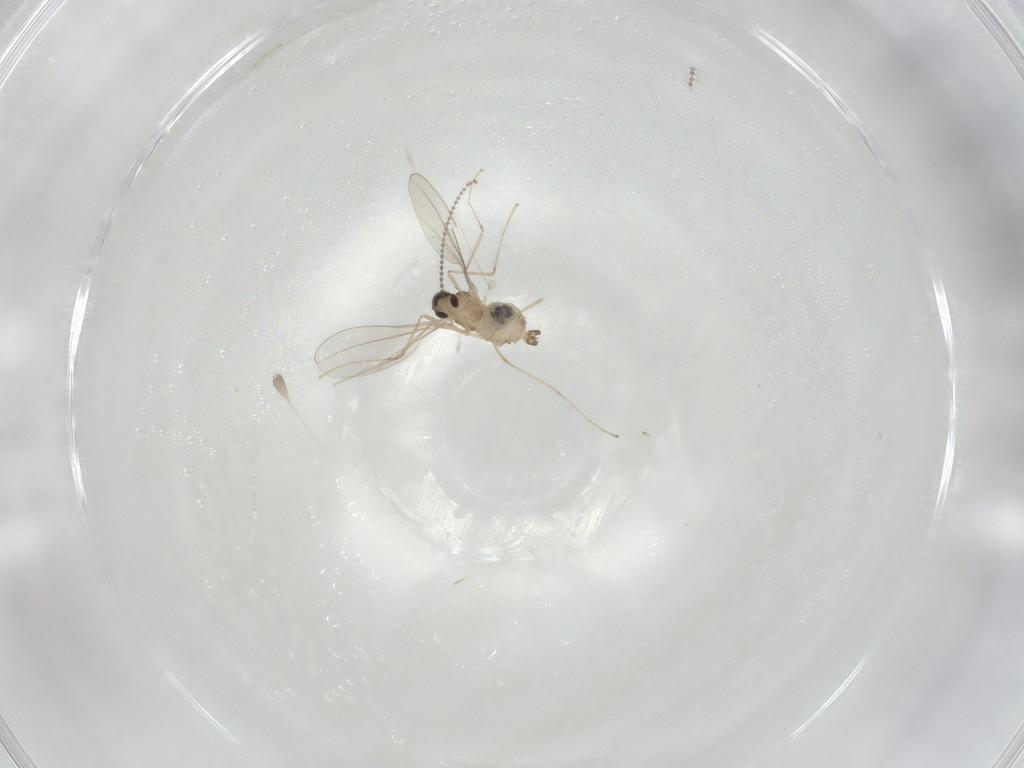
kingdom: Animalia
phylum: Arthropoda
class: Insecta
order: Diptera
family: Cecidomyiidae
